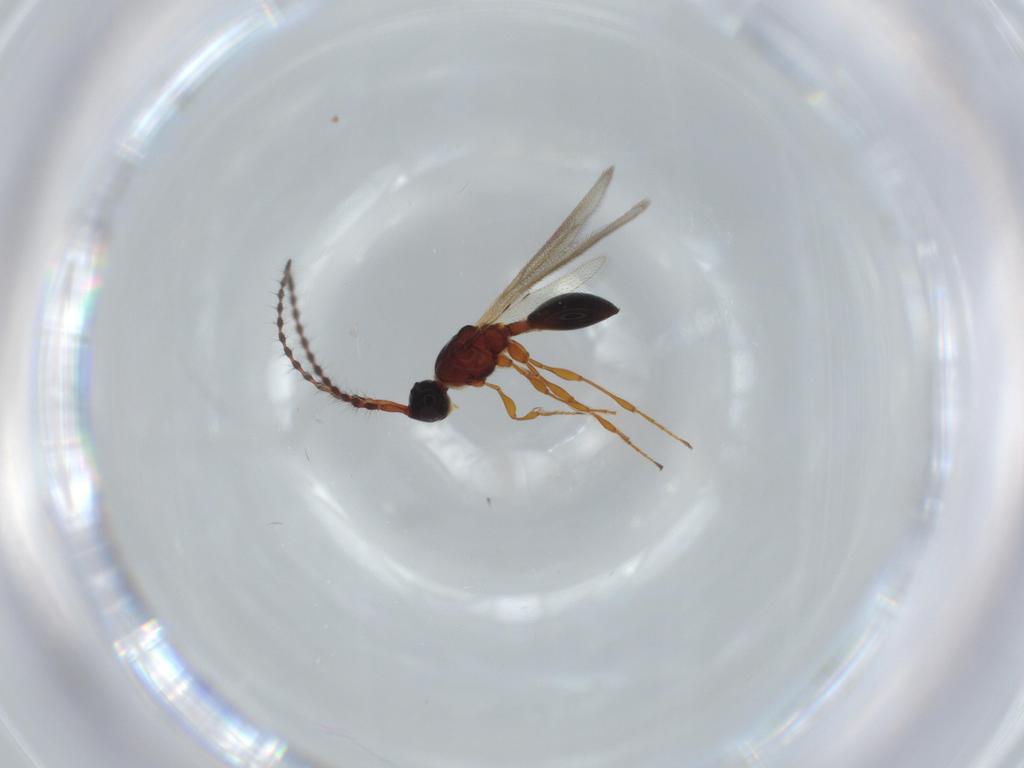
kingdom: Animalia
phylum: Arthropoda
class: Insecta
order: Hymenoptera
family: Diapriidae
